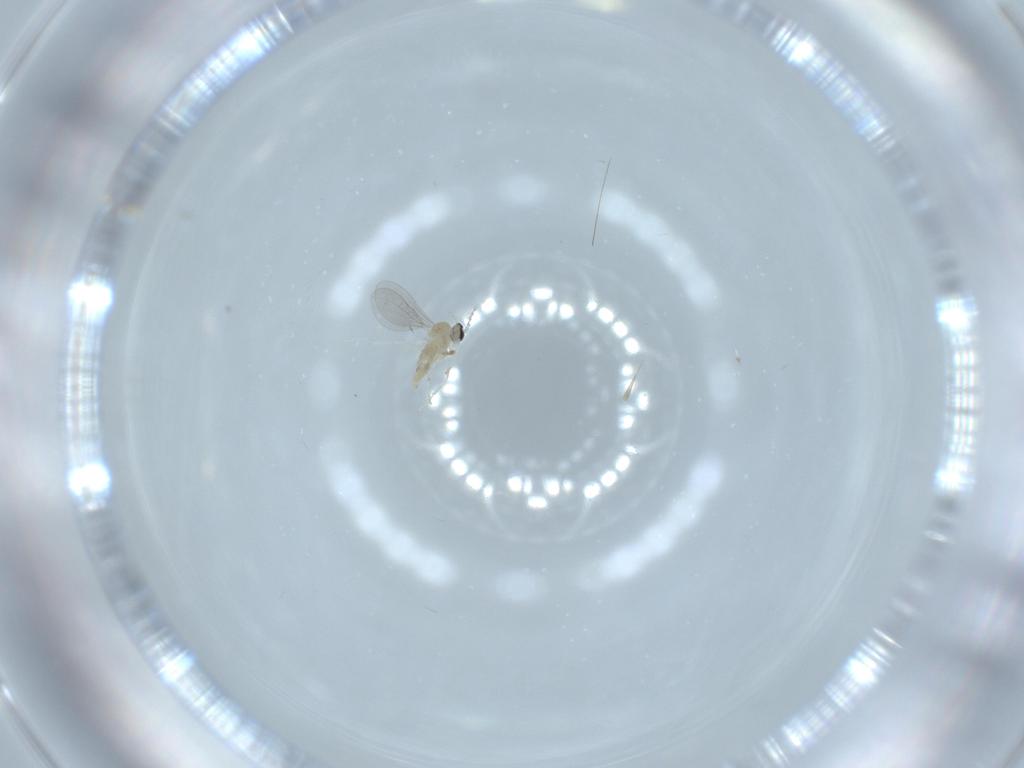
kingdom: Animalia
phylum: Arthropoda
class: Insecta
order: Diptera
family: Cecidomyiidae
